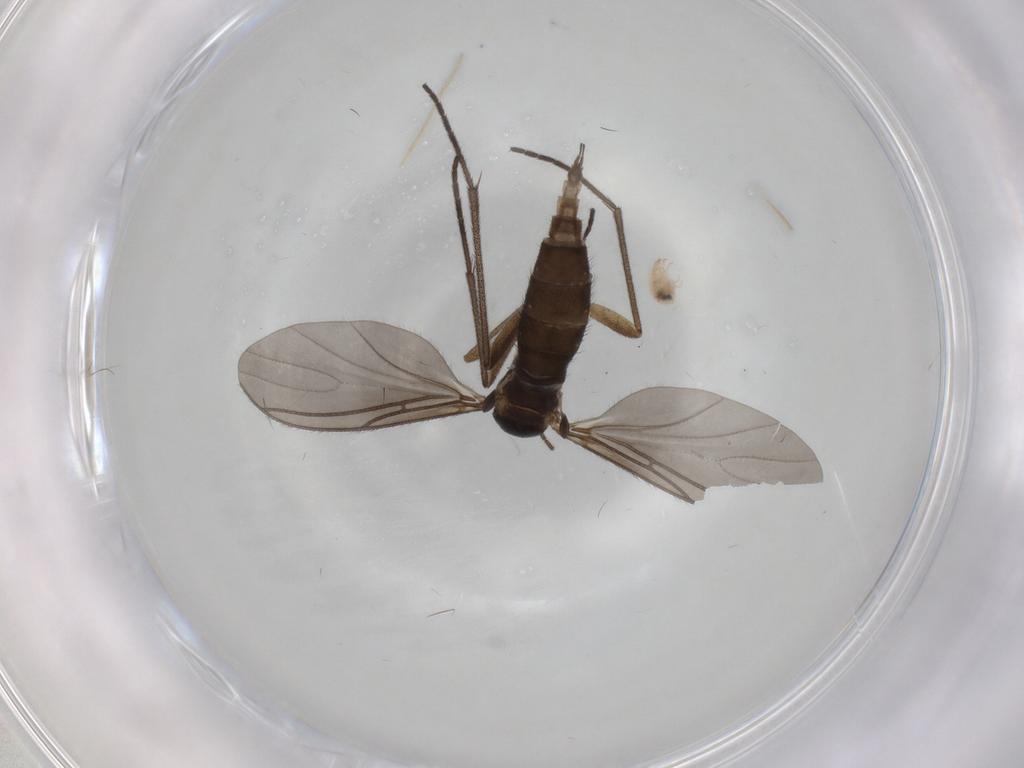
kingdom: Animalia
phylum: Arthropoda
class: Insecta
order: Diptera
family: Sciaridae
